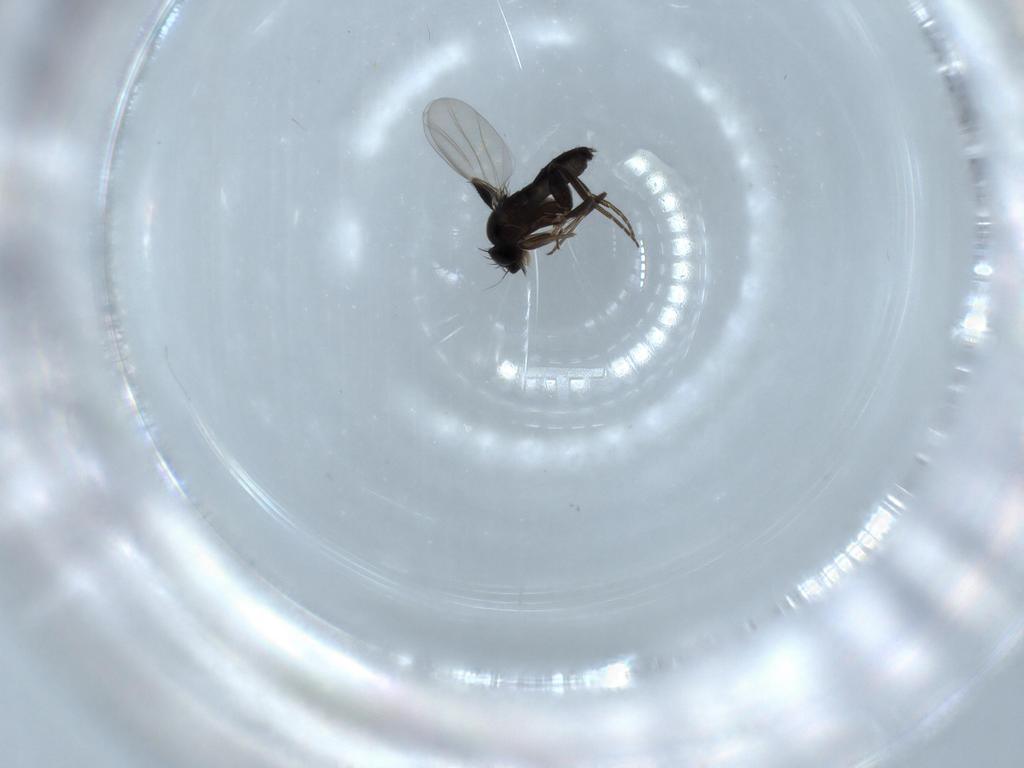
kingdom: Animalia
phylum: Arthropoda
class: Insecta
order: Diptera
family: Phoridae
